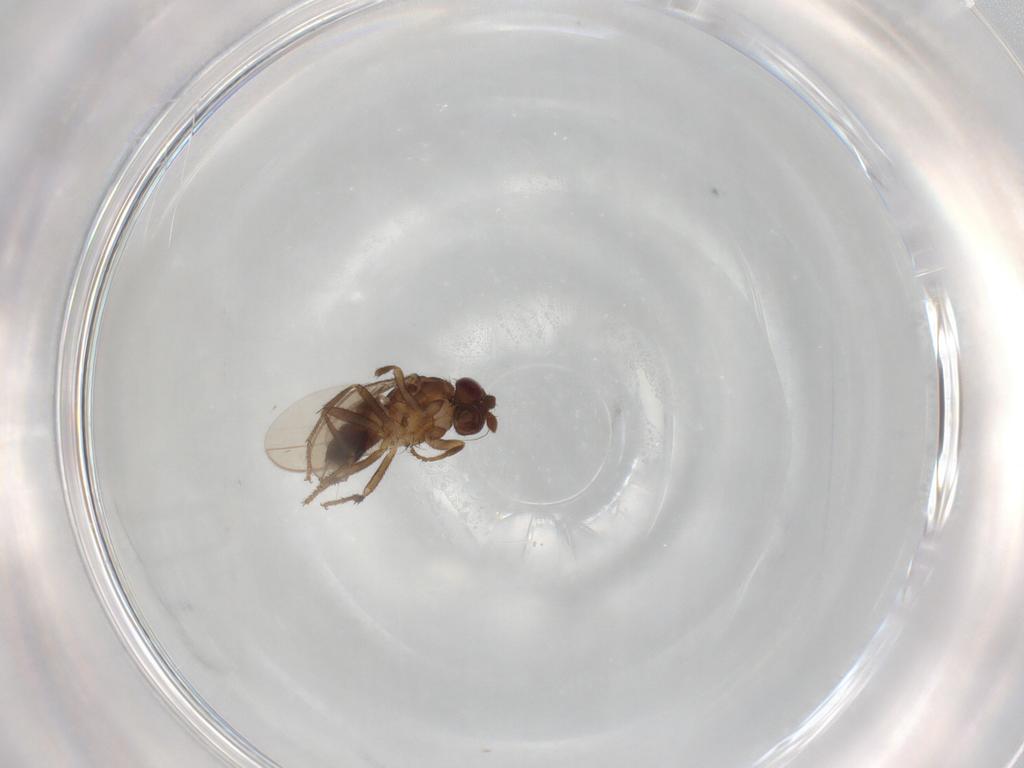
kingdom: Animalia
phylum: Arthropoda
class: Insecta
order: Diptera
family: Sphaeroceridae
